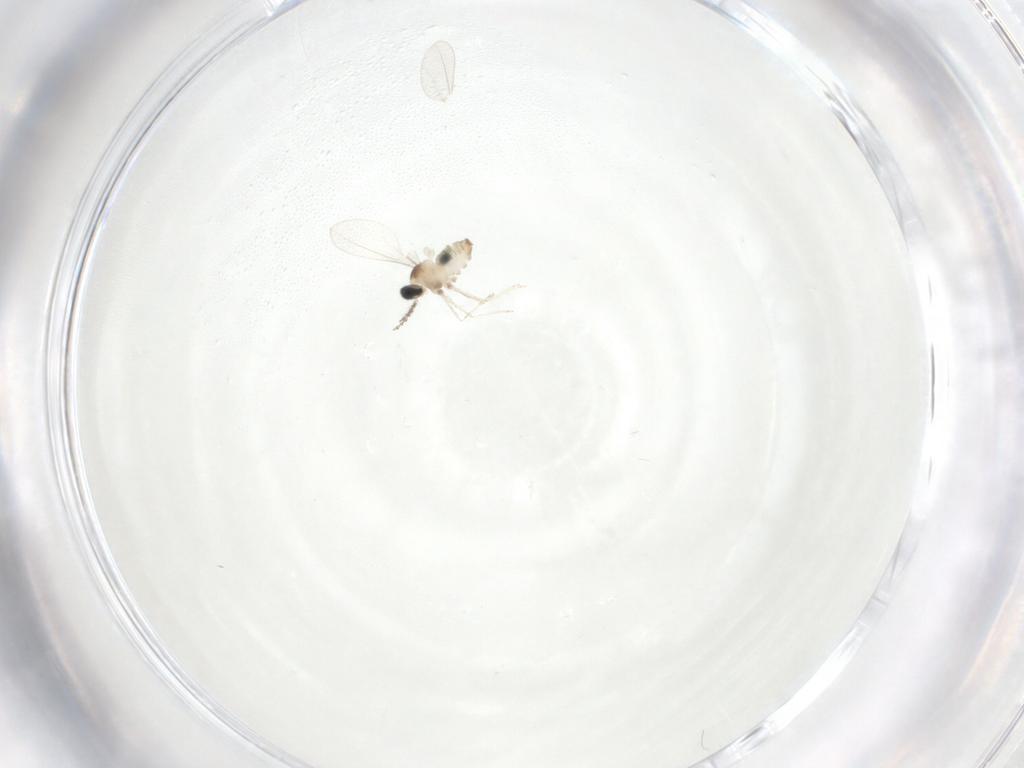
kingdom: Animalia
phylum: Arthropoda
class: Insecta
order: Diptera
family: Cecidomyiidae
